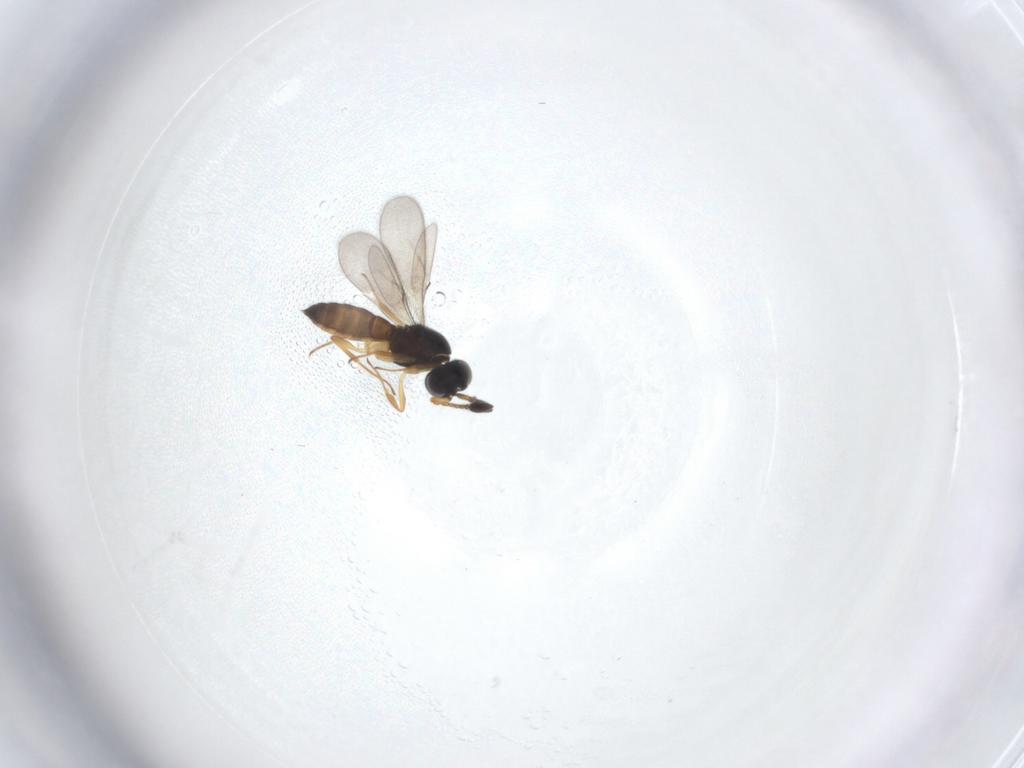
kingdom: Animalia
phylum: Arthropoda
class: Insecta
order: Hymenoptera
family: Scelionidae
